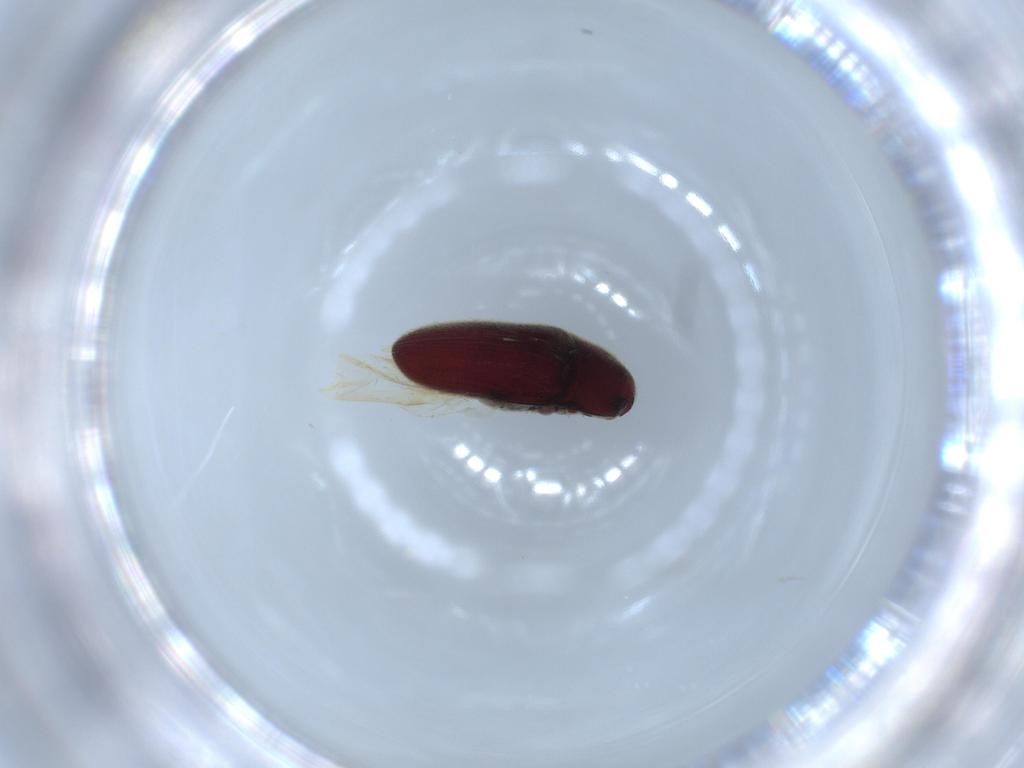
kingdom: Animalia
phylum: Arthropoda
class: Insecta
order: Coleoptera
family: Throscidae
